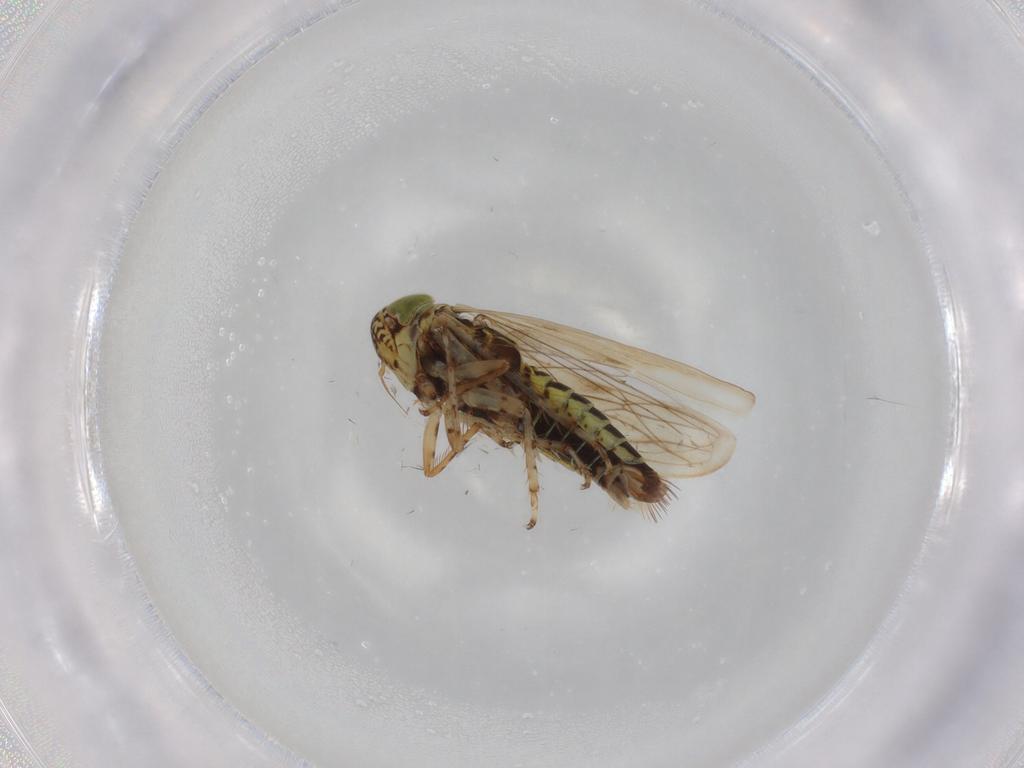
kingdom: Animalia
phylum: Arthropoda
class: Insecta
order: Hemiptera
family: Cicadellidae
